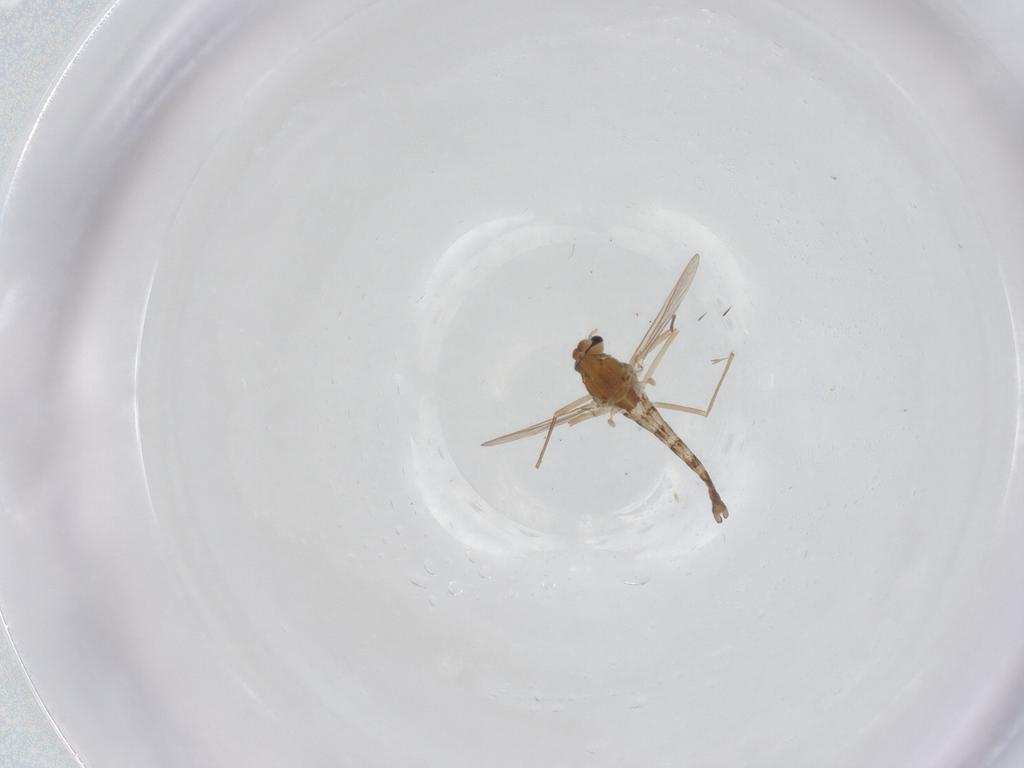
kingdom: Animalia
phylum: Arthropoda
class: Insecta
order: Diptera
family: Chironomidae
